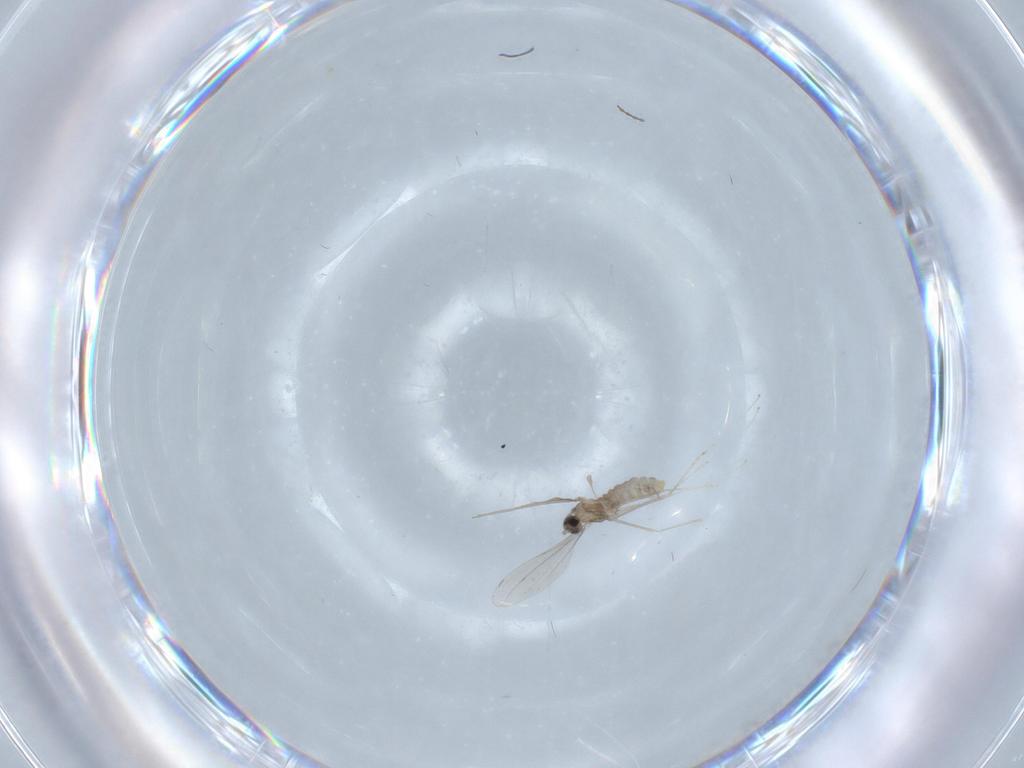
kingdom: Animalia
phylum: Arthropoda
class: Insecta
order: Diptera
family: Cecidomyiidae
